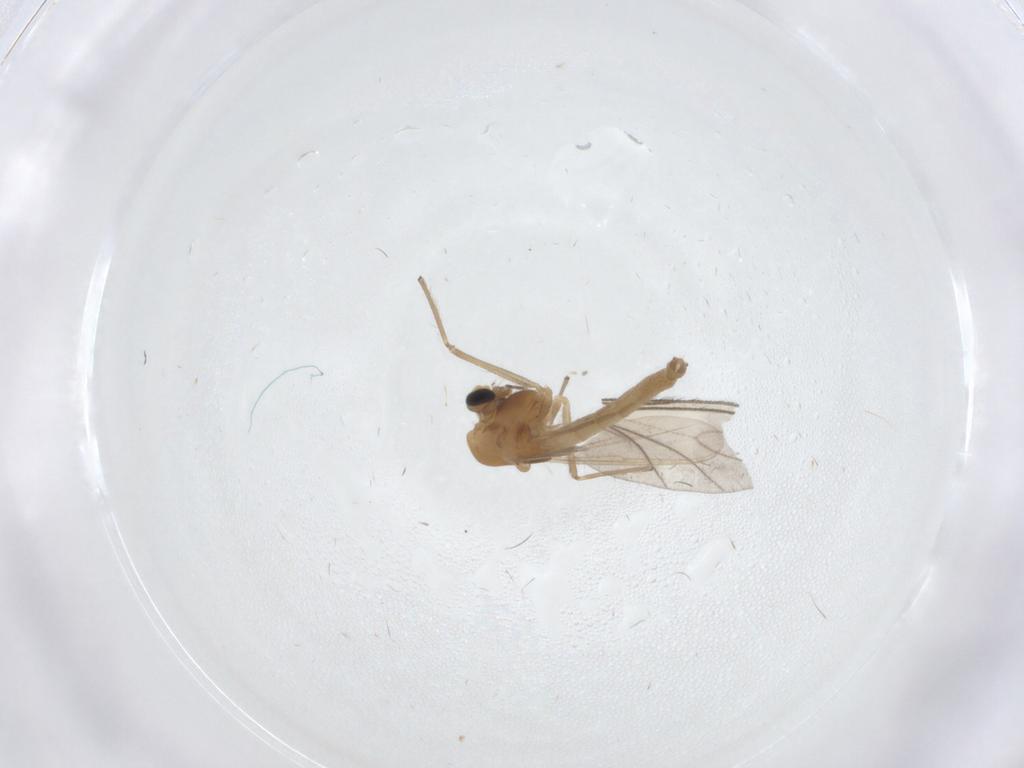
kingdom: Animalia
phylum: Arthropoda
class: Insecta
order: Diptera
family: Chironomidae
